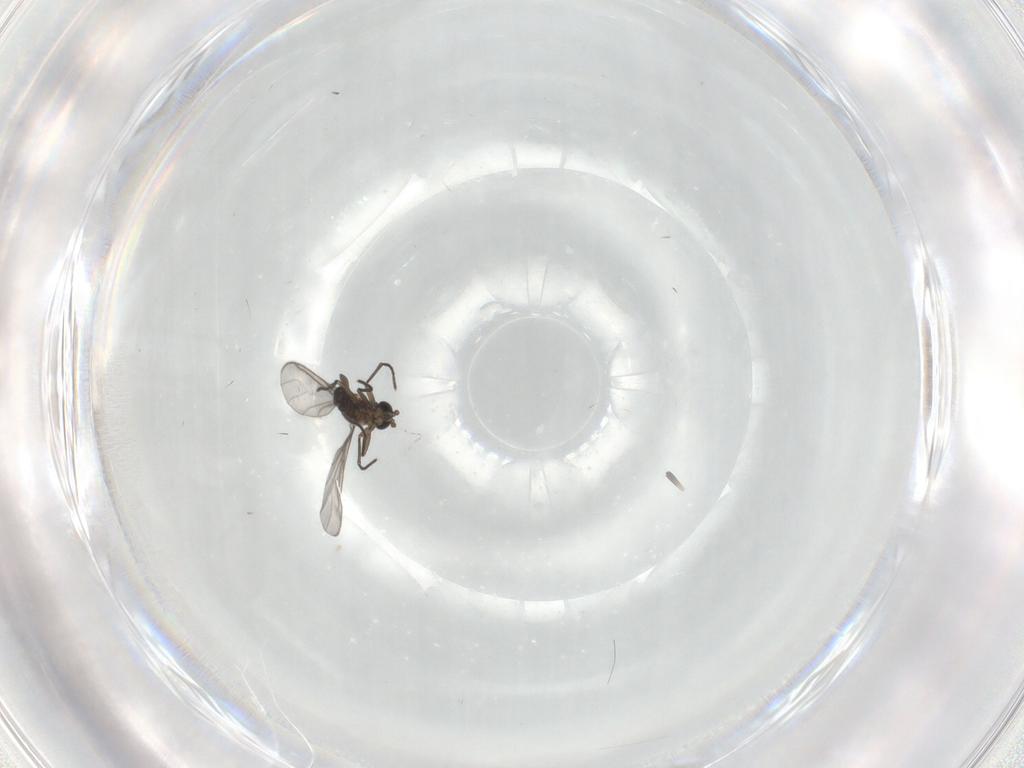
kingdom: Animalia
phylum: Arthropoda
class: Insecta
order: Diptera
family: Sciaridae
